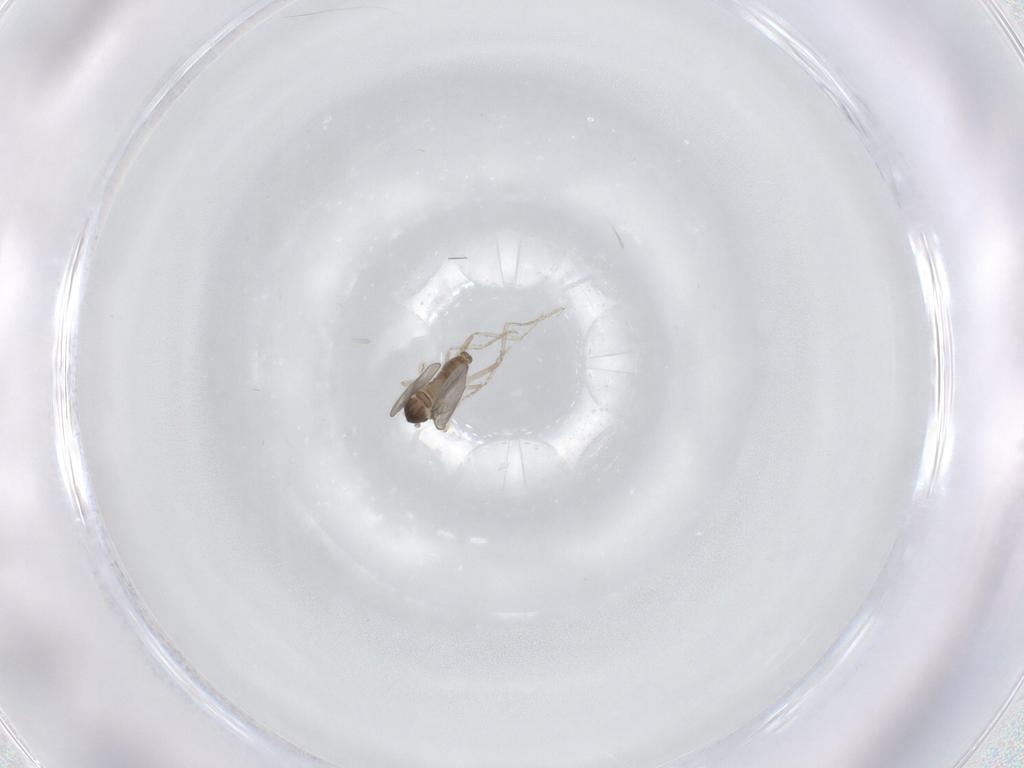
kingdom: Animalia
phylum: Arthropoda
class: Insecta
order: Diptera
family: Cecidomyiidae
